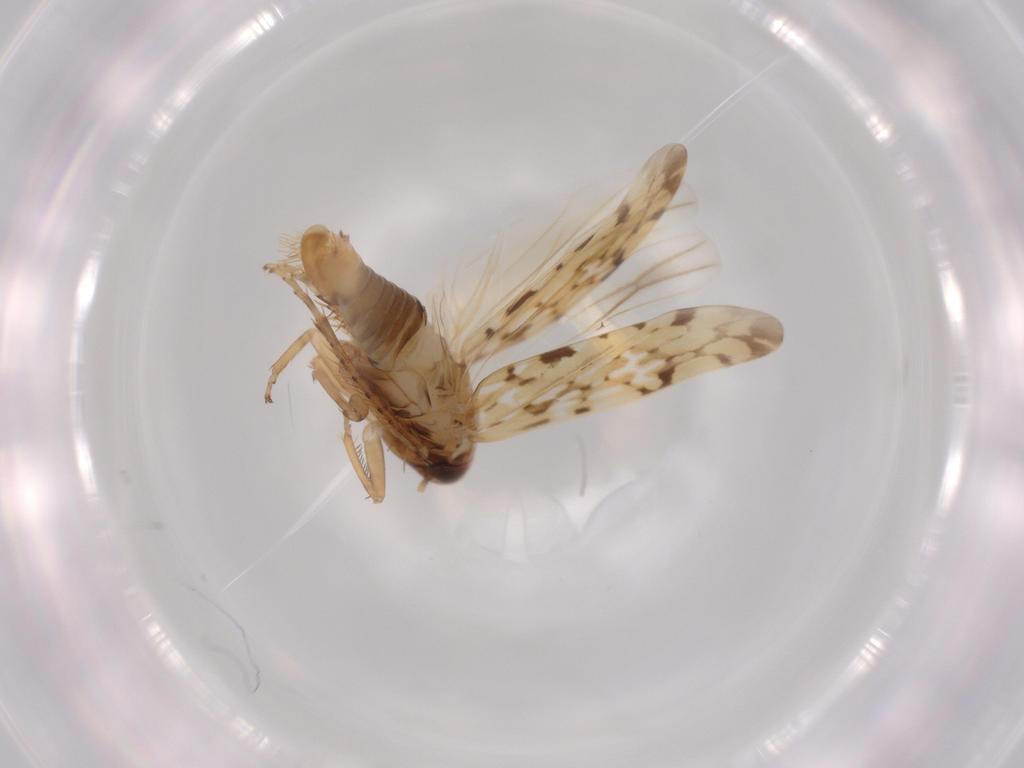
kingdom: Animalia
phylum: Arthropoda
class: Insecta
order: Hemiptera
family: Cicadellidae
